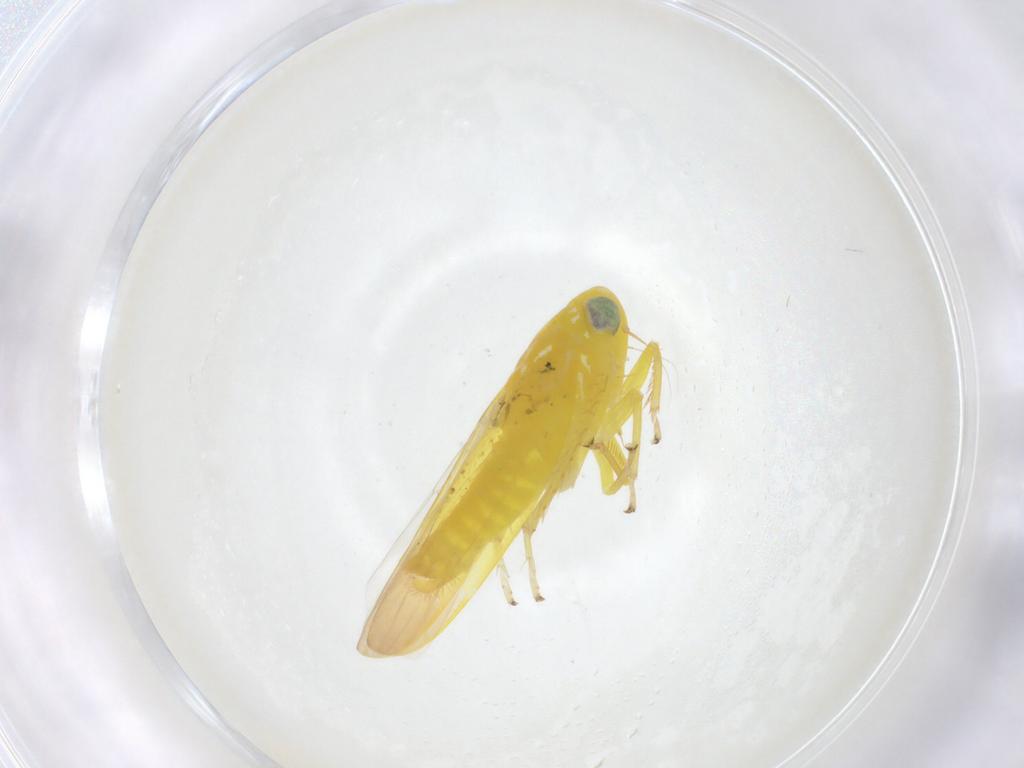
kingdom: Animalia
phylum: Arthropoda
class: Insecta
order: Hemiptera
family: Cicadellidae
